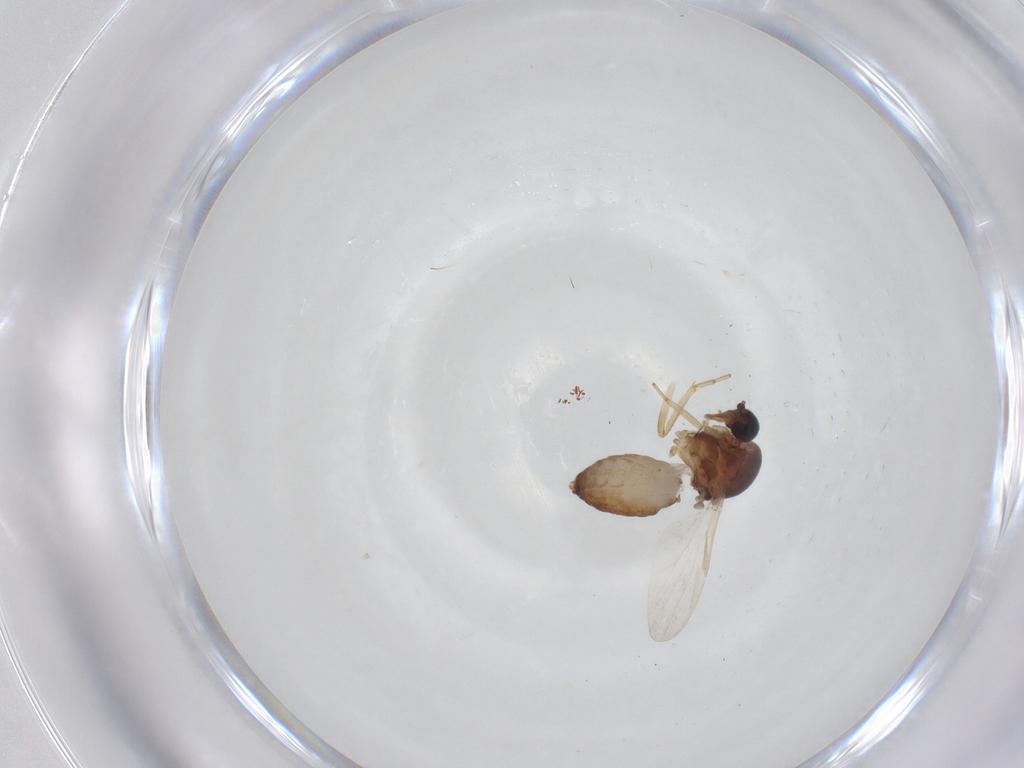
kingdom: Animalia
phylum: Arthropoda
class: Insecta
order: Diptera
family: Ceratopogonidae
